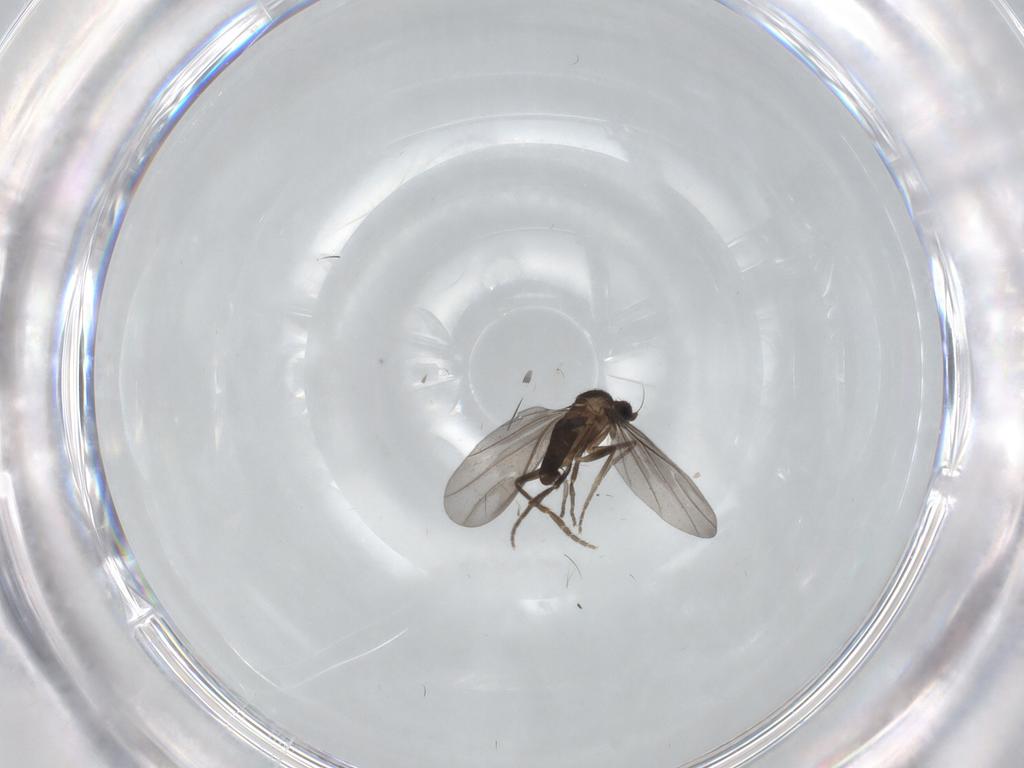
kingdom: Animalia
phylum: Arthropoda
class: Insecta
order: Diptera
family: Phoridae
